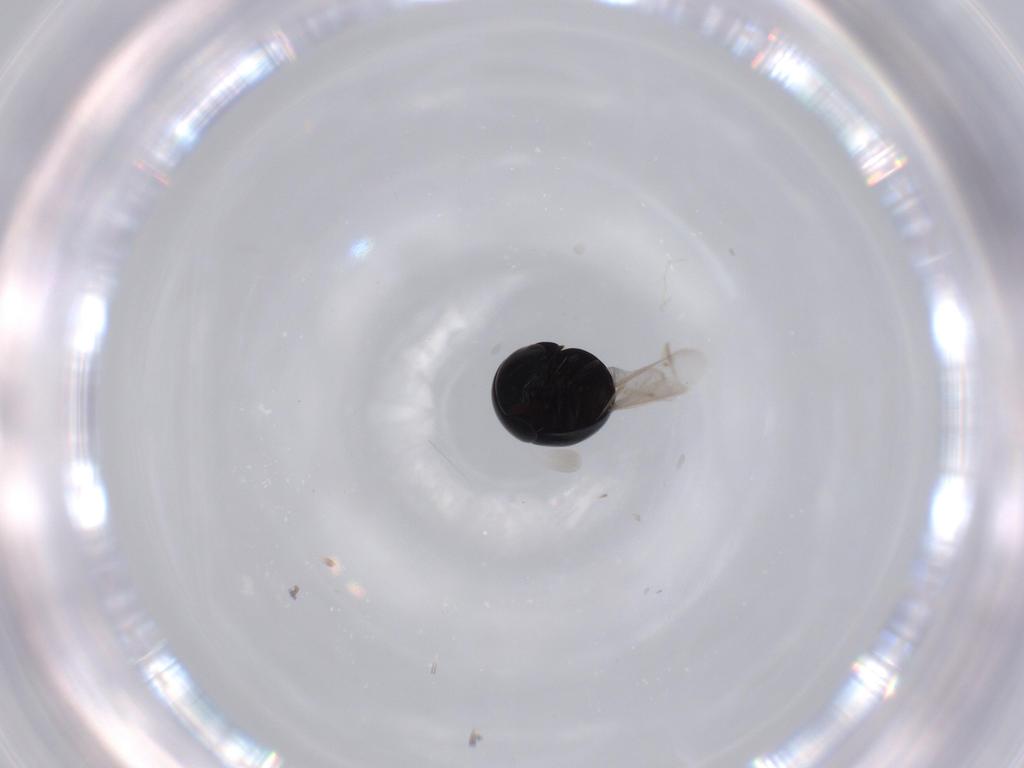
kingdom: Animalia
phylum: Arthropoda
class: Insecta
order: Coleoptera
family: Cybocephalidae
